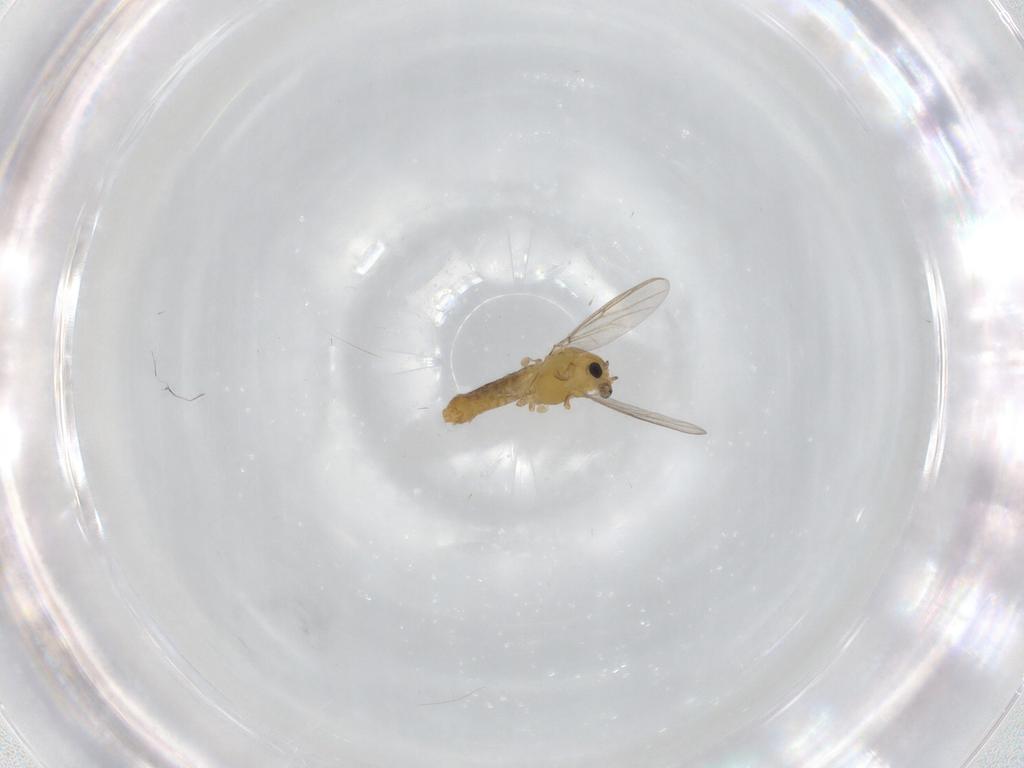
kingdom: Animalia
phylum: Arthropoda
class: Insecta
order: Diptera
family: Chironomidae
